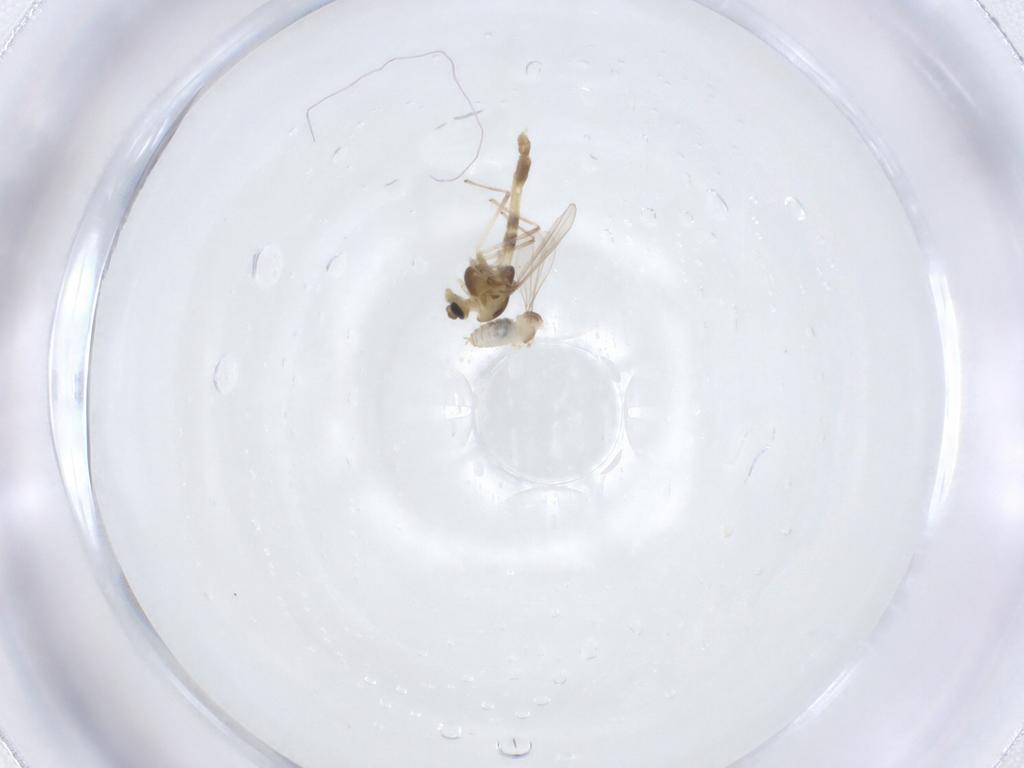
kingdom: Animalia
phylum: Arthropoda
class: Insecta
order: Diptera
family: Chironomidae
